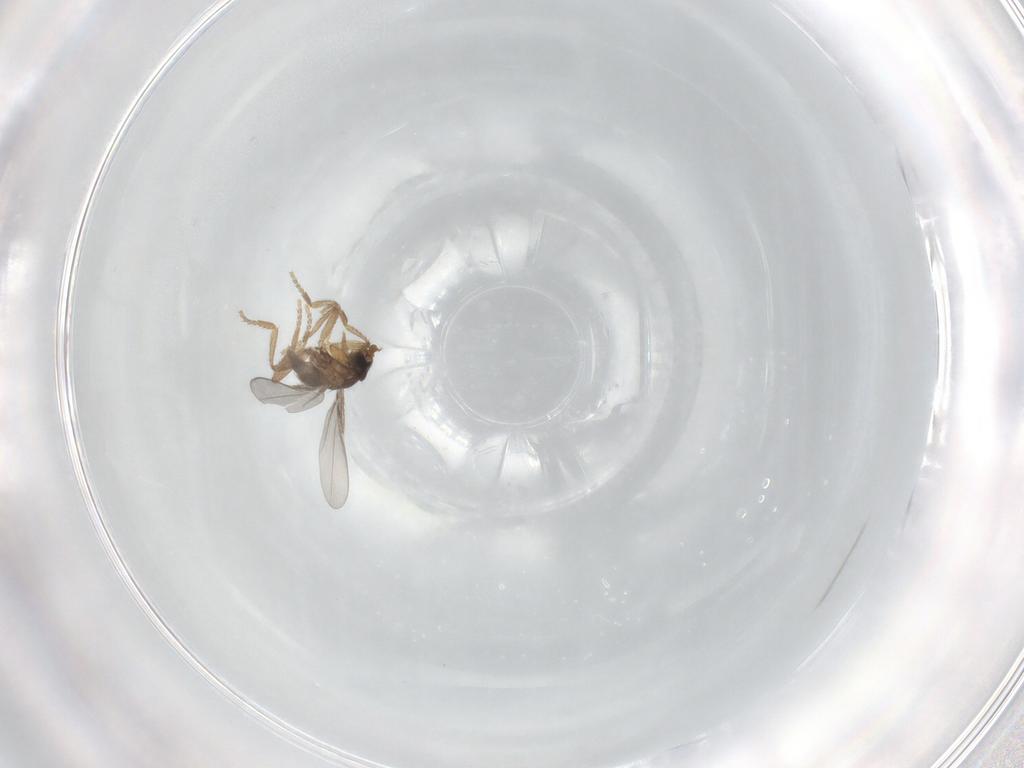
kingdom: Animalia
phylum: Arthropoda
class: Insecta
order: Diptera
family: Phoridae
